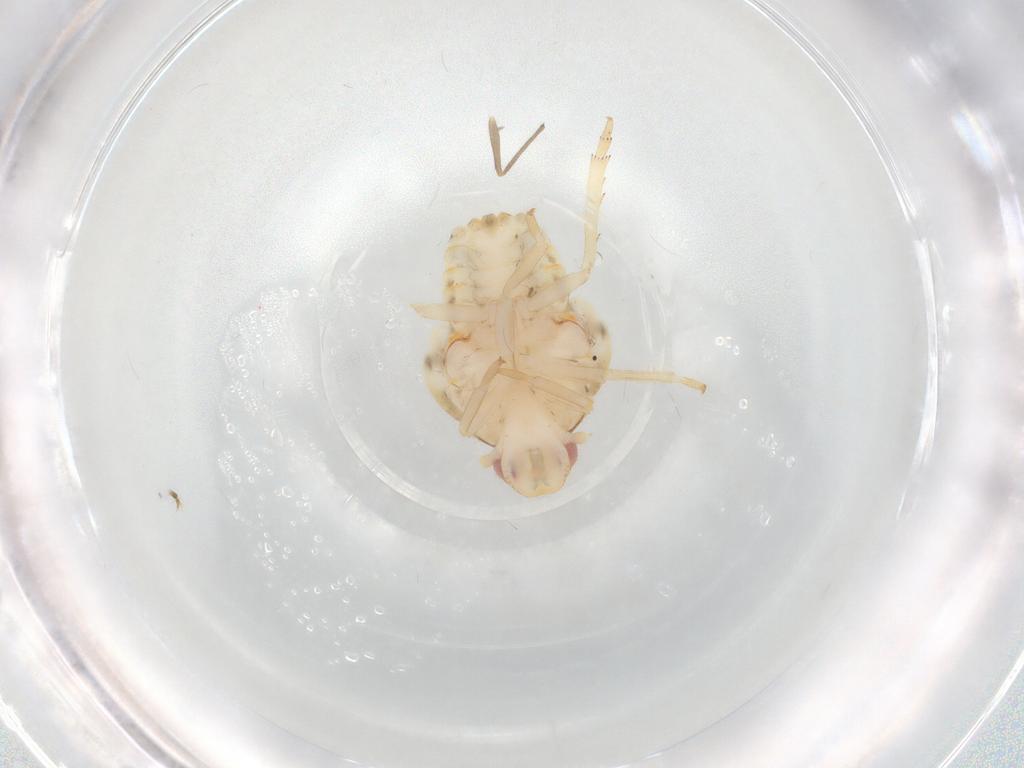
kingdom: Animalia
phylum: Arthropoda
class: Insecta
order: Hemiptera
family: Flatidae
